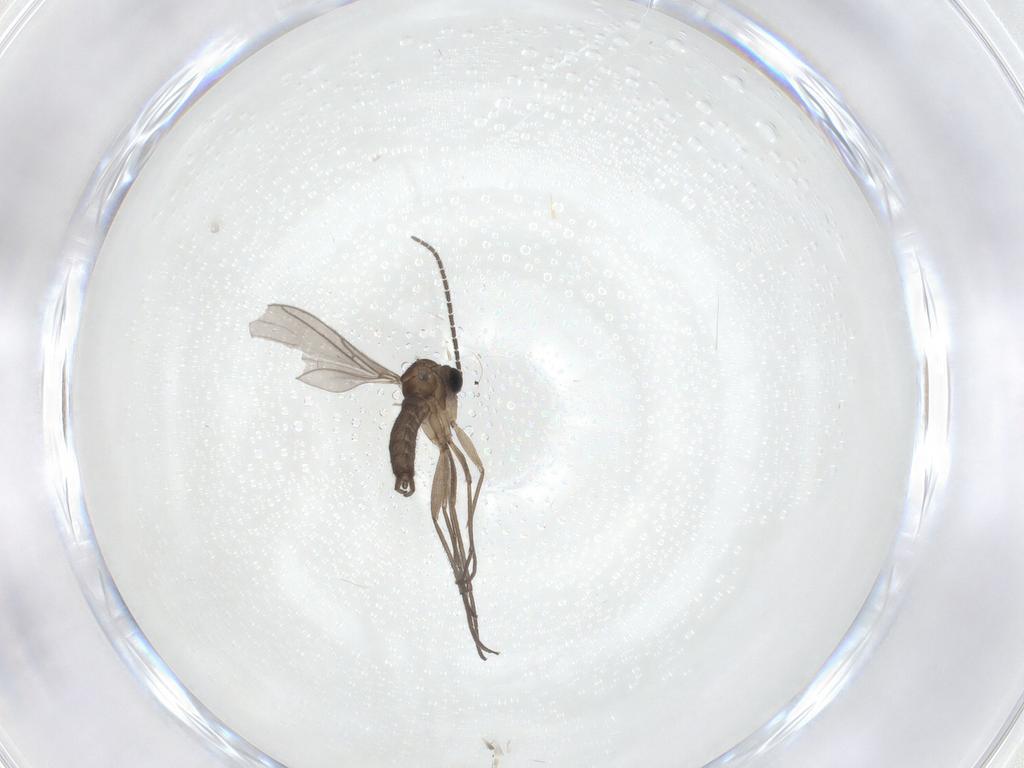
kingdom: Animalia
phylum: Arthropoda
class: Insecta
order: Diptera
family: Sciaridae
